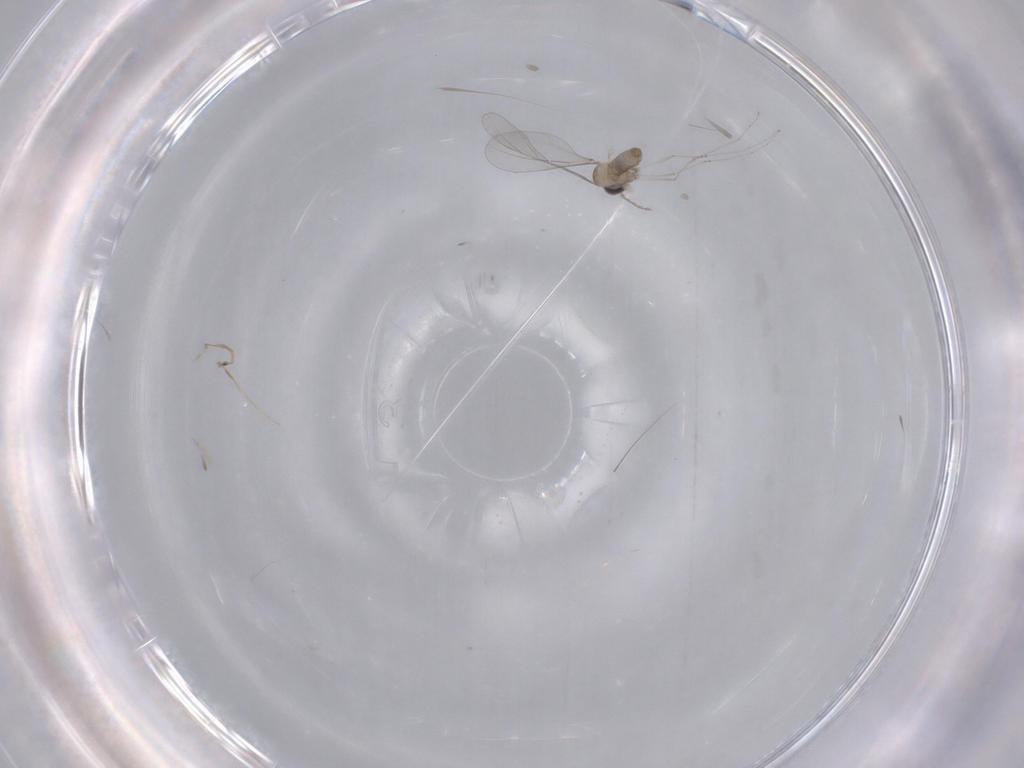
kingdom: Animalia
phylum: Arthropoda
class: Insecta
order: Diptera
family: Cecidomyiidae
